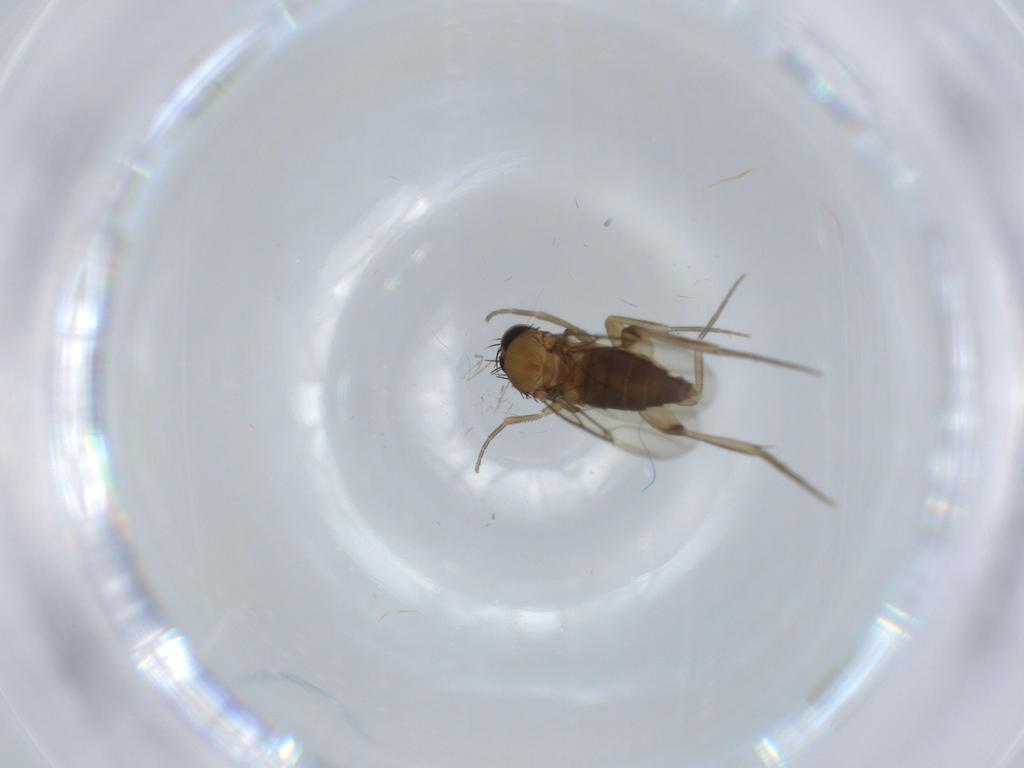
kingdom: Animalia
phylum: Arthropoda
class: Insecta
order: Diptera
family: Phoridae
